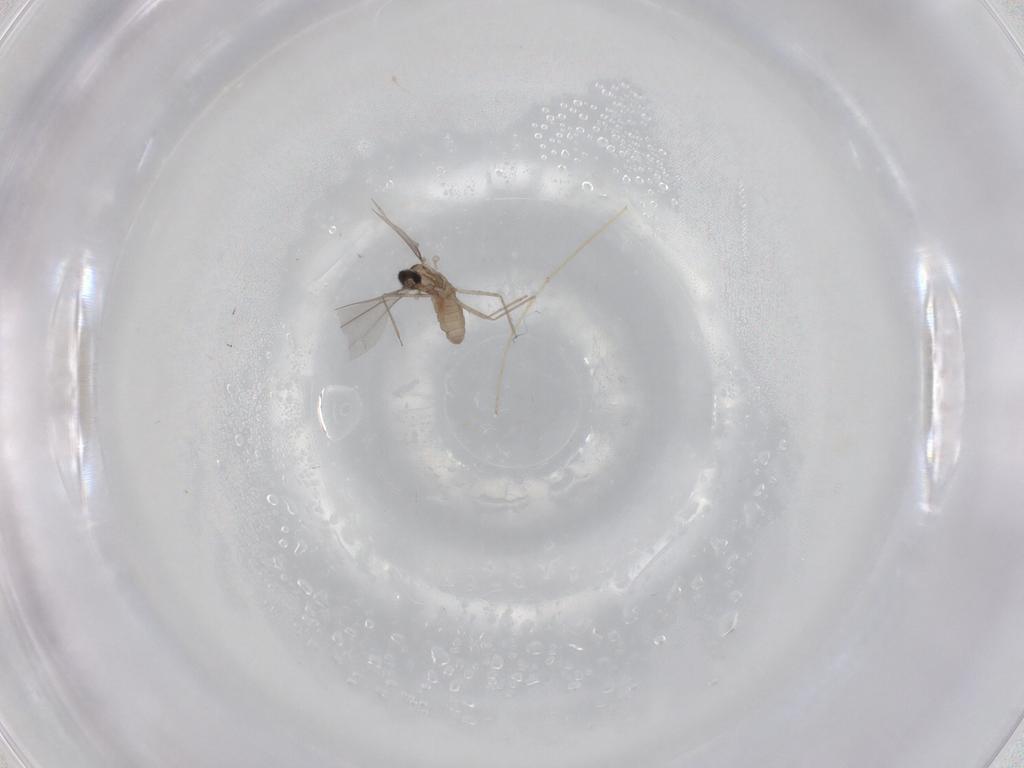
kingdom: Animalia
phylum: Arthropoda
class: Insecta
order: Diptera
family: Cecidomyiidae
